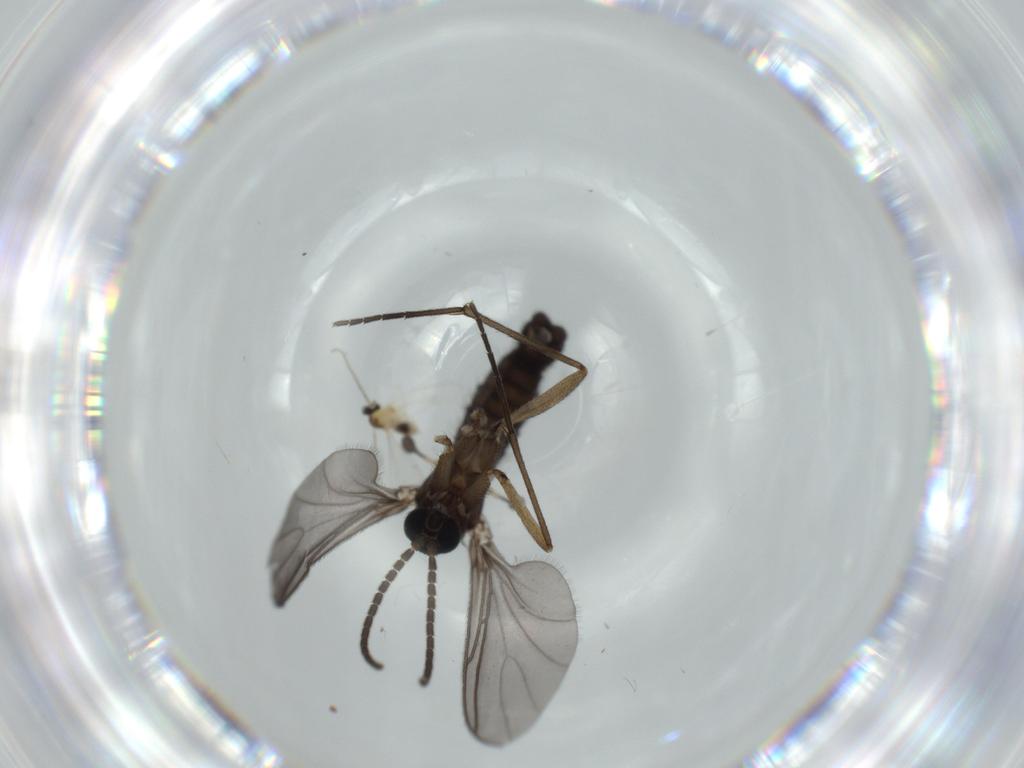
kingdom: Animalia
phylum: Arthropoda
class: Insecta
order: Diptera
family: Sciaridae
